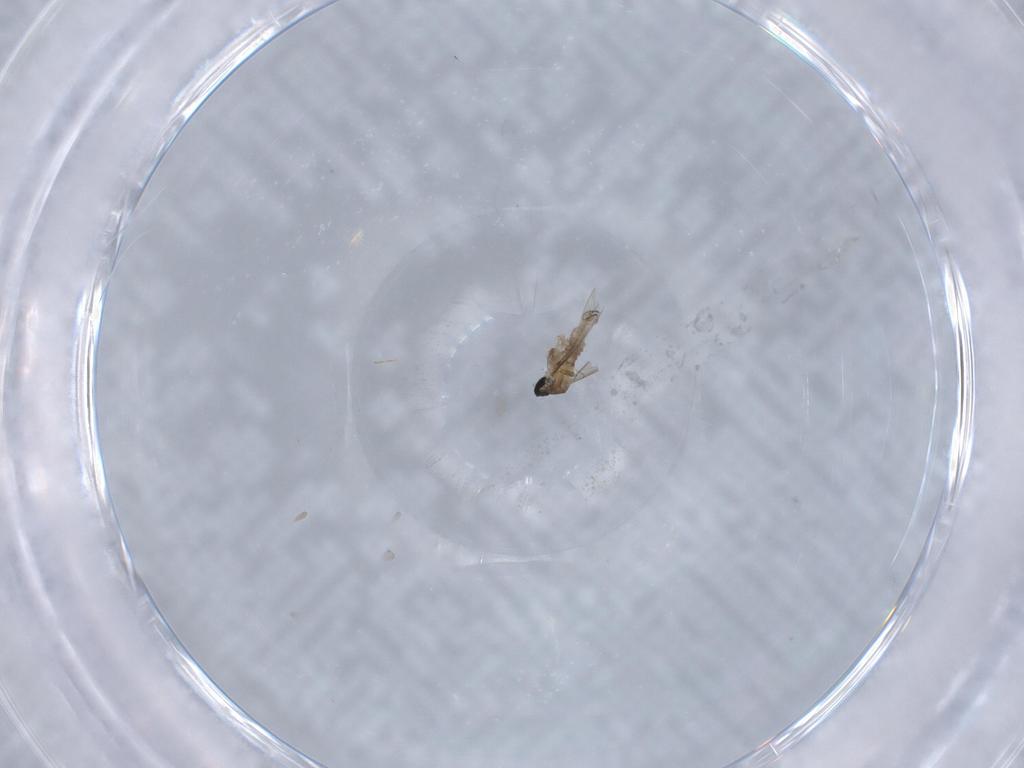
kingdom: Animalia
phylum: Arthropoda
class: Insecta
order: Diptera
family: Cecidomyiidae
